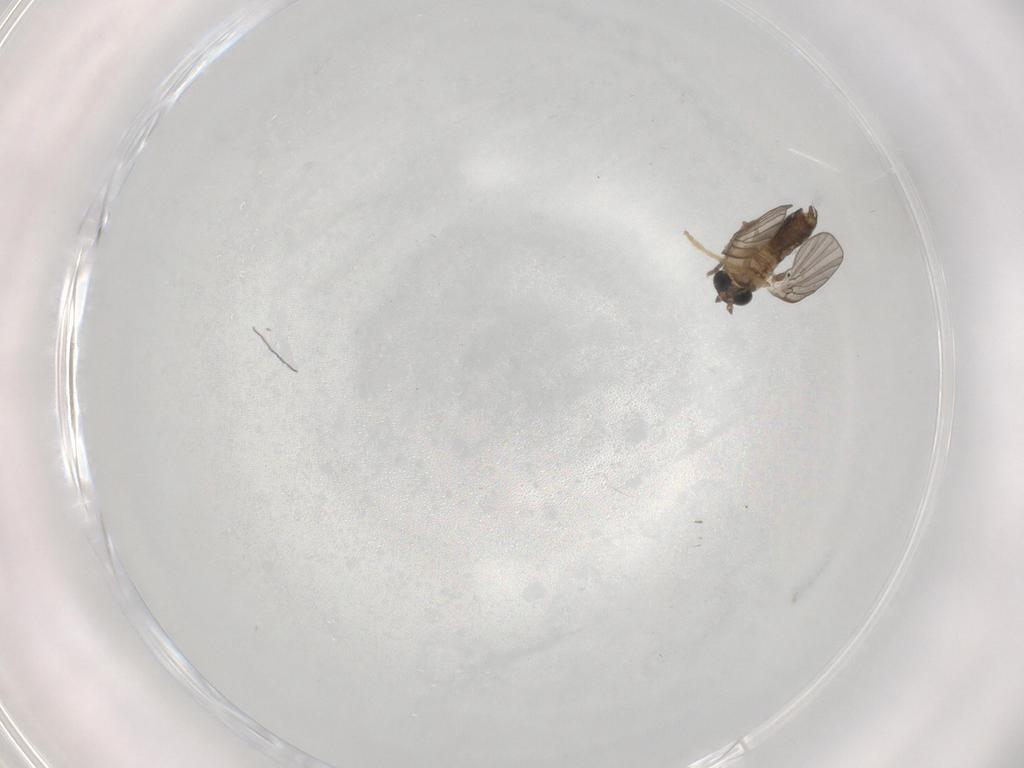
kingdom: Animalia
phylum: Arthropoda
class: Insecta
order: Diptera
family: Psychodidae
